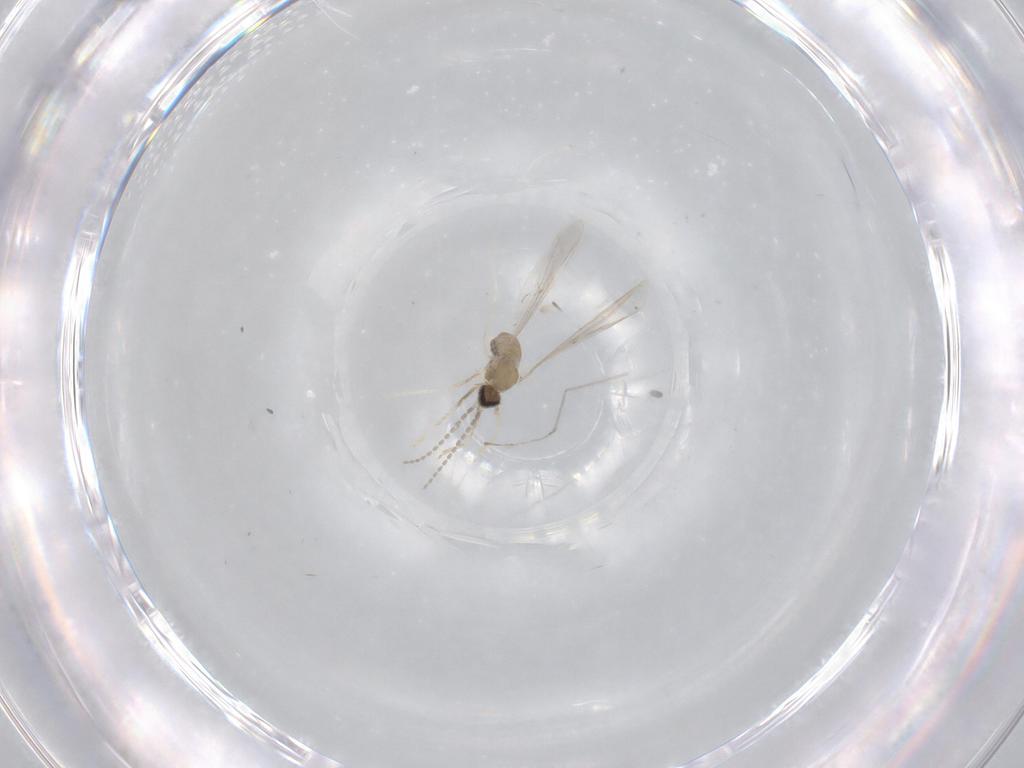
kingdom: Animalia
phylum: Arthropoda
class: Insecta
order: Diptera
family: Cecidomyiidae
